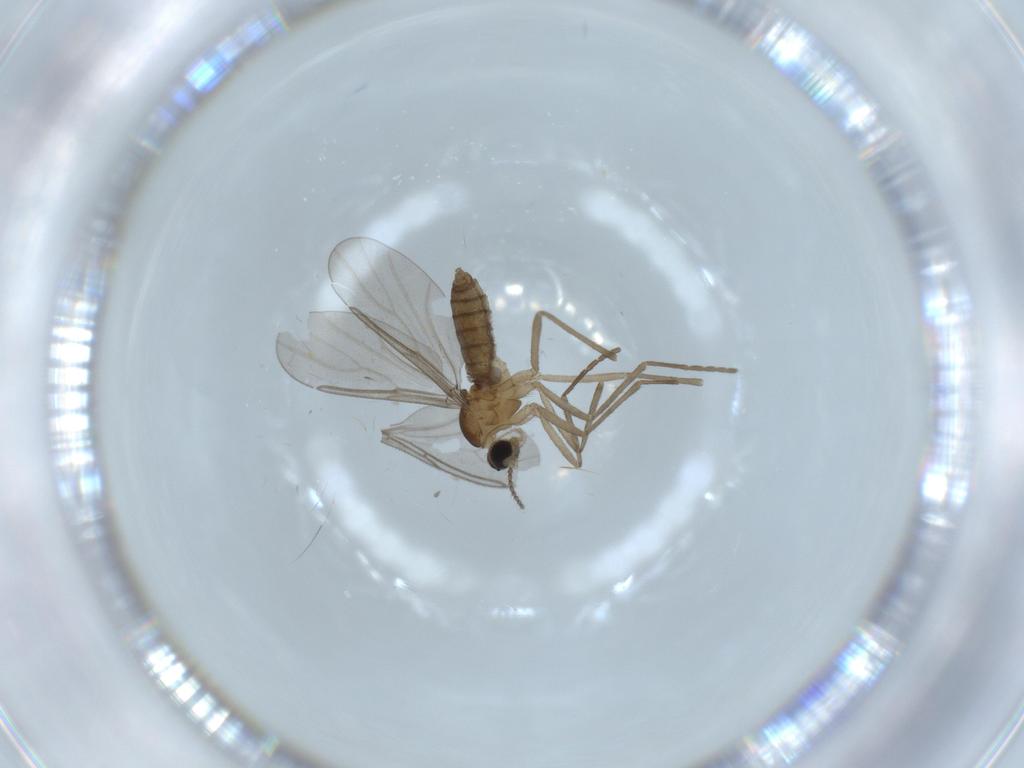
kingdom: Animalia
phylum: Arthropoda
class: Insecta
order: Diptera
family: Cecidomyiidae
